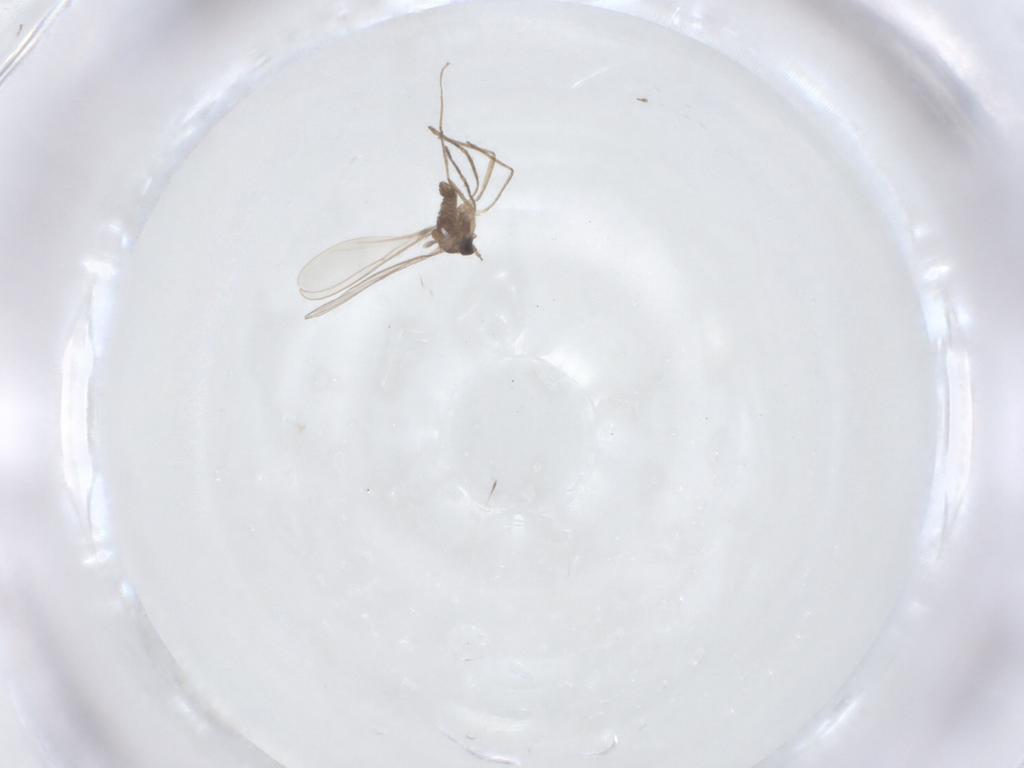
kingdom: Animalia
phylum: Arthropoda
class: Insecta
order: Diptera
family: Cecidomyiidae
